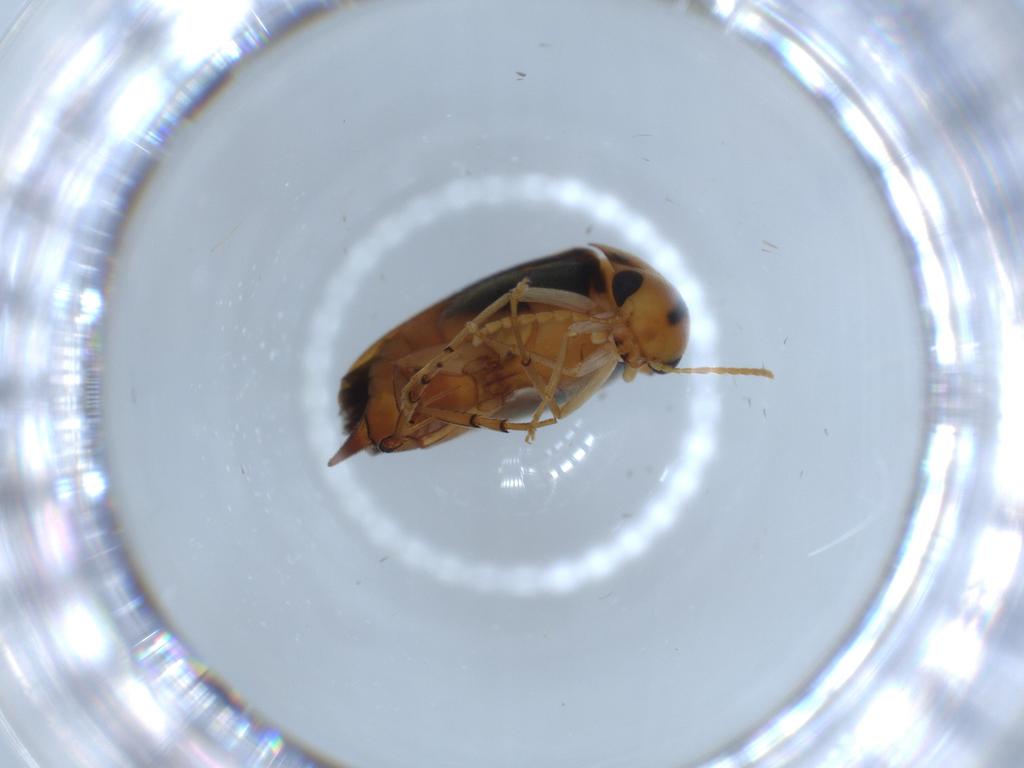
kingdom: Animalia
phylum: Arthropoda
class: Insecta
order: Coleoptera
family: Mordellidae
